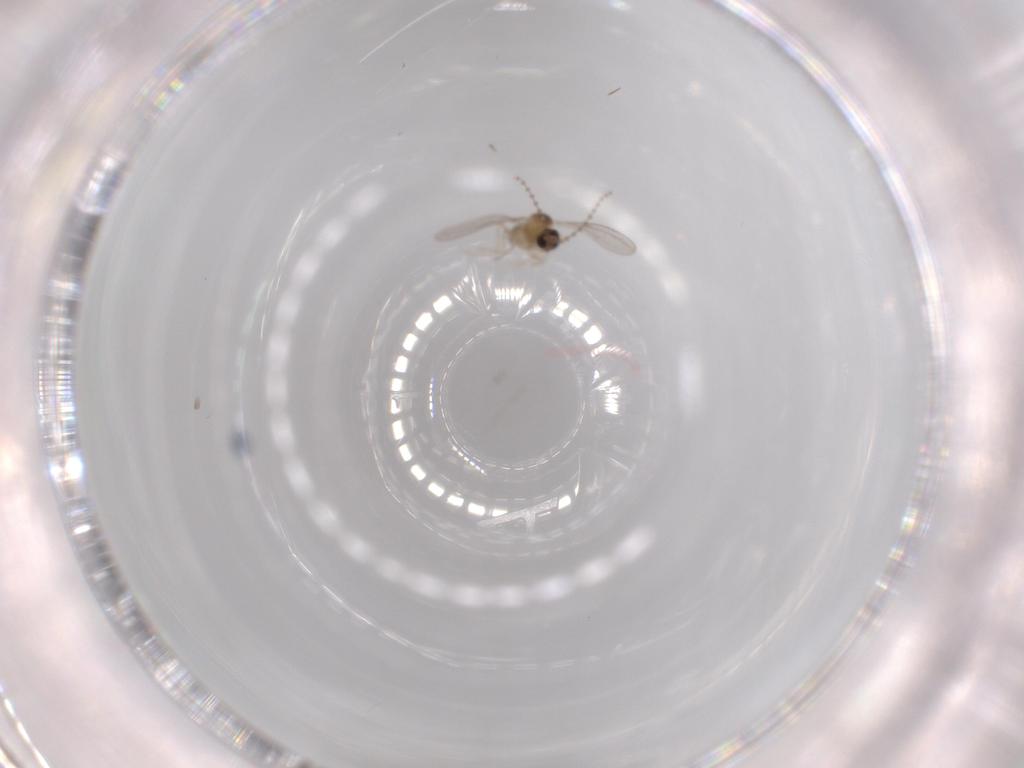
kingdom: Animalia
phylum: Arthropoda
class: Insecta
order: Diptera
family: Cecidomyiidae
